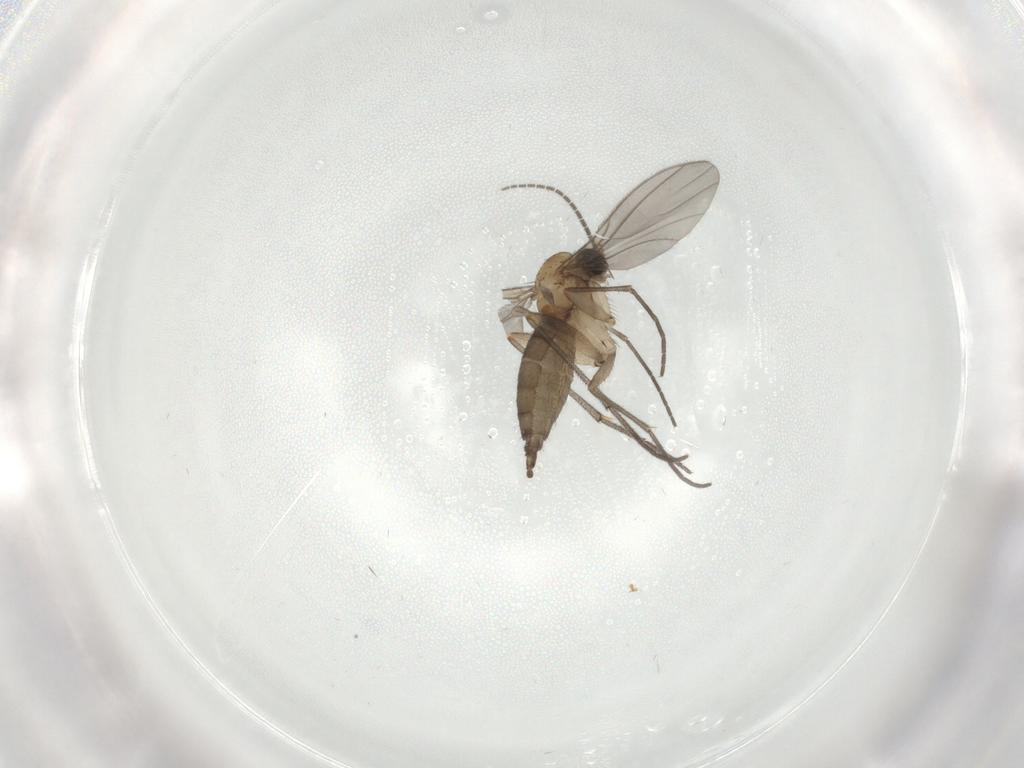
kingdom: Animalia
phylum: Arthropoda
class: Insecta
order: Diptera
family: Sciaridae
